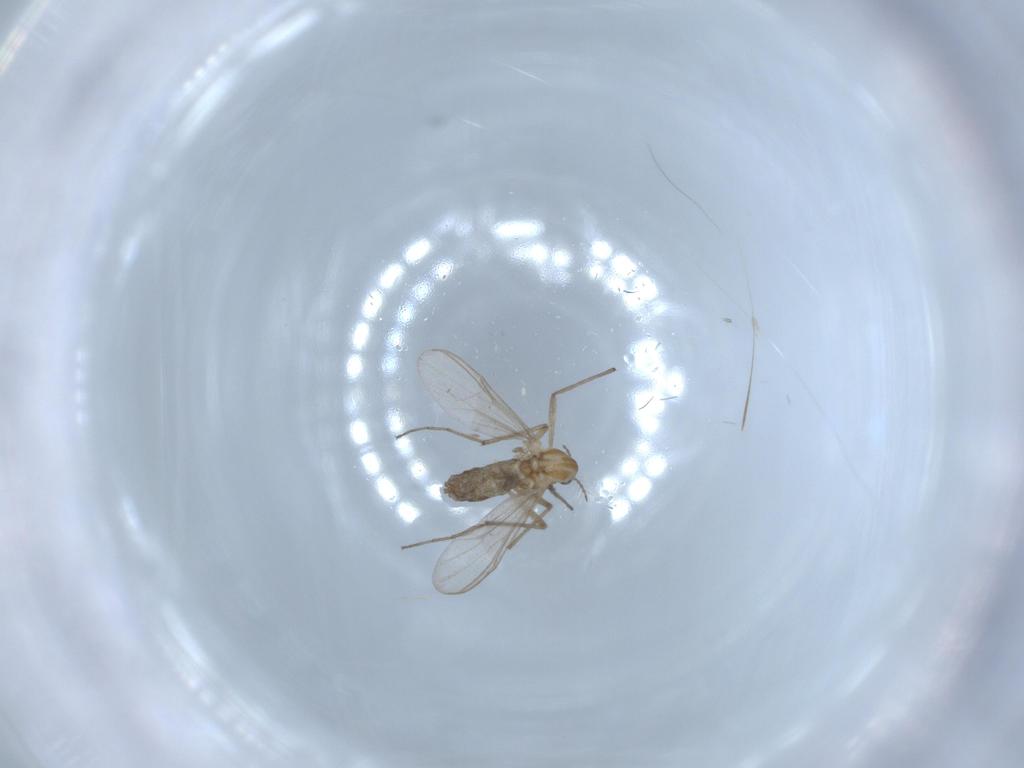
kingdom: Animalia
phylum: Arthropoda
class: Insecta
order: Diptera
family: Chironomidae
